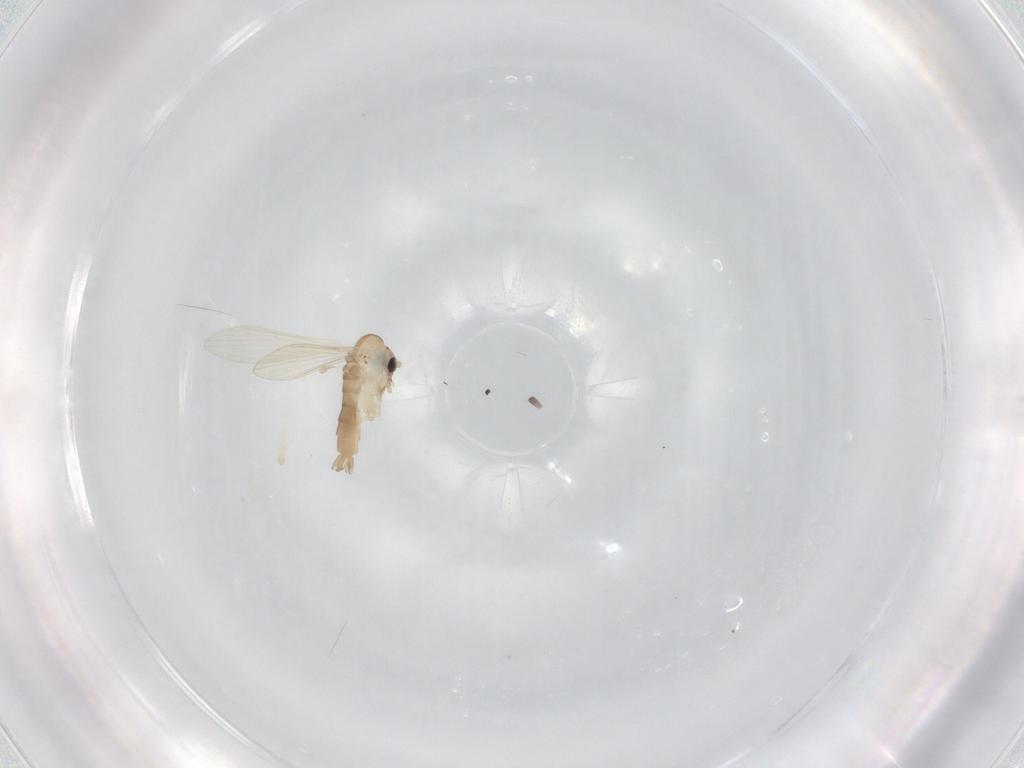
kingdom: Animalia
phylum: Arthropoda
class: Insecta
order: Diptera
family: Psychodidae
